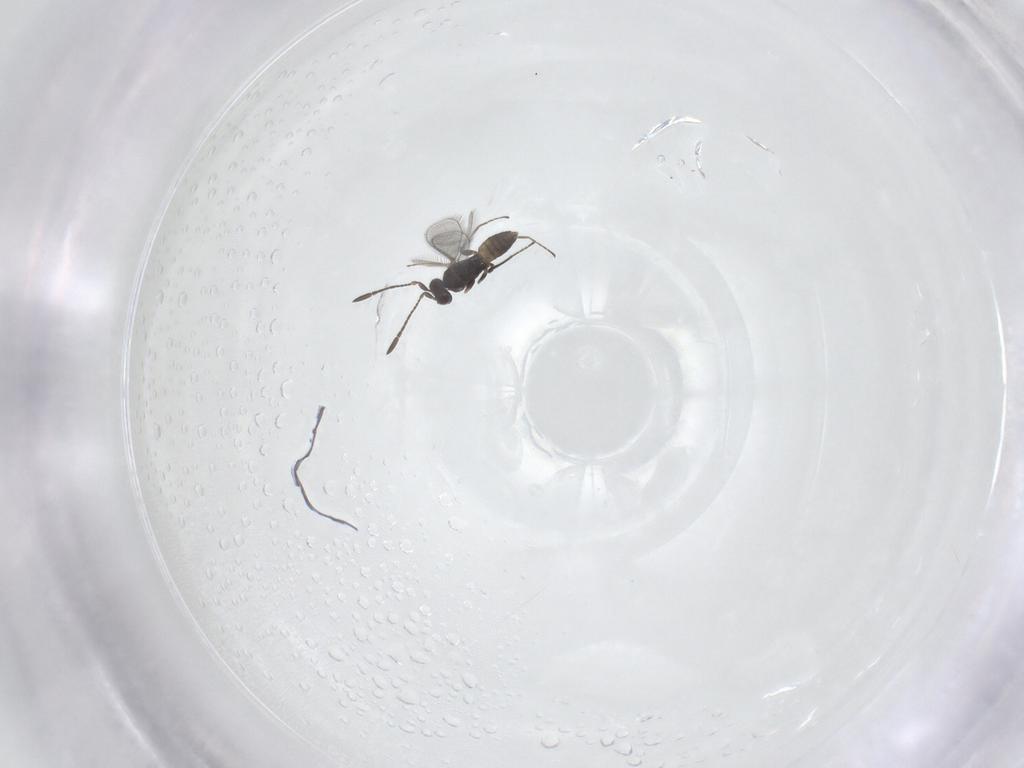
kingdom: Animalia
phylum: Arthropoda
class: Insecta
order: Hymenoptera
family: Mymaridae
